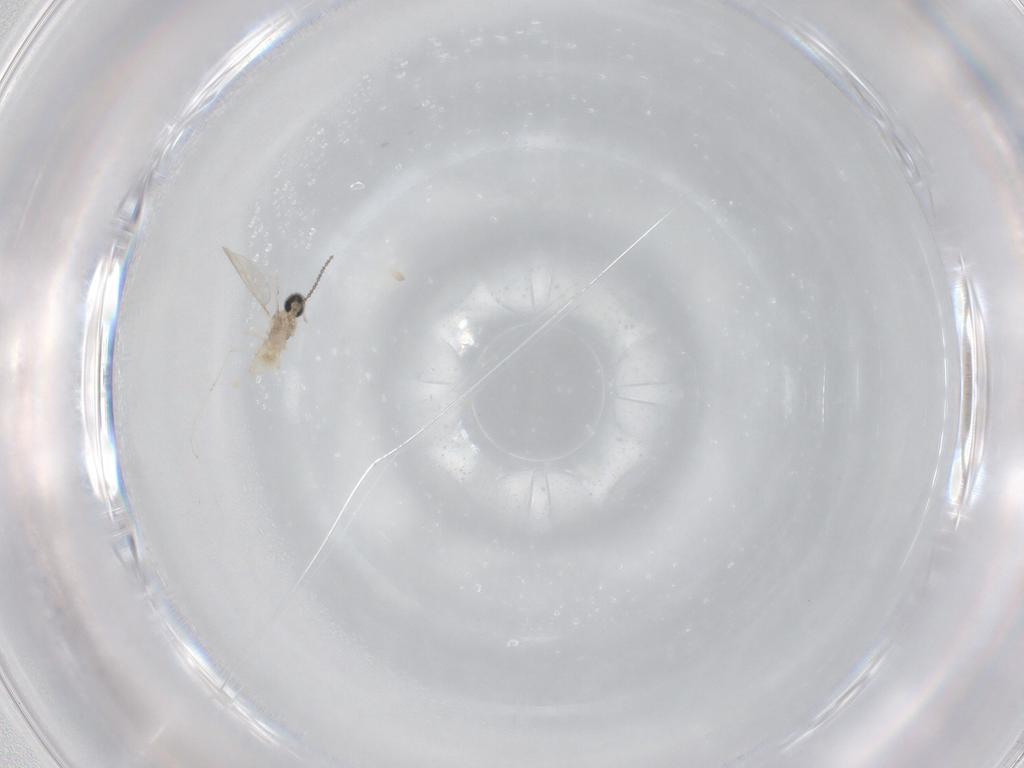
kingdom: Animalia
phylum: Arthropoda
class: Insecta
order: Diptera
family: Cecidomyiidae
